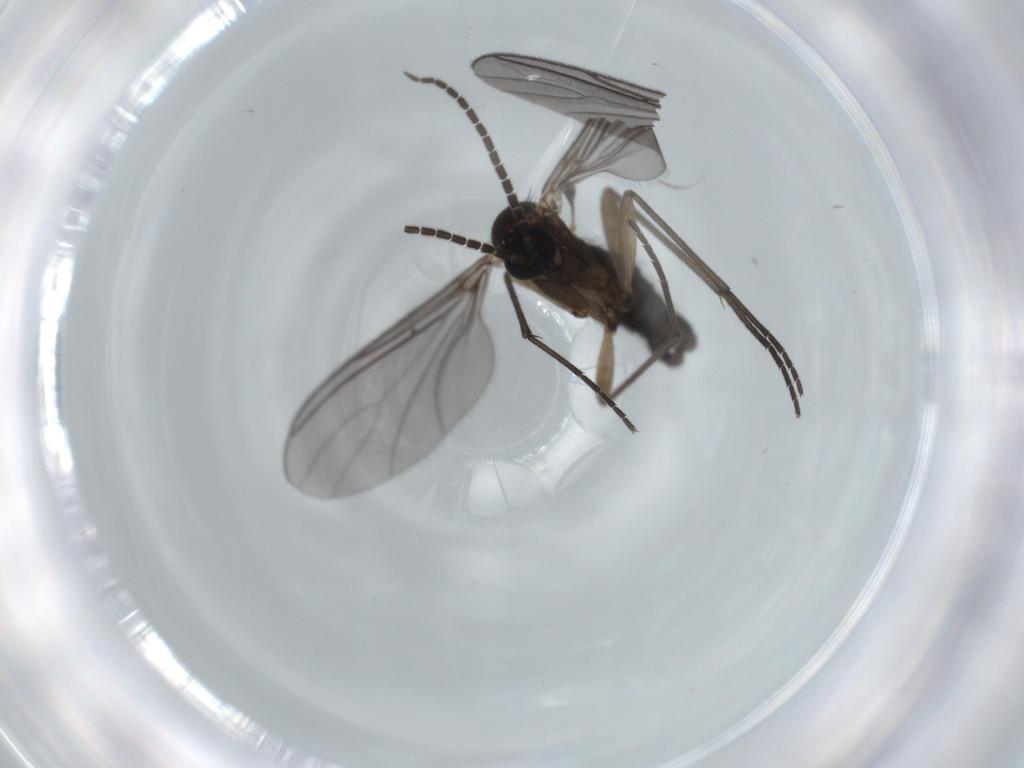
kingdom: Animalia
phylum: Arthropoda
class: Insecta
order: Diptera
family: Sciaridae
